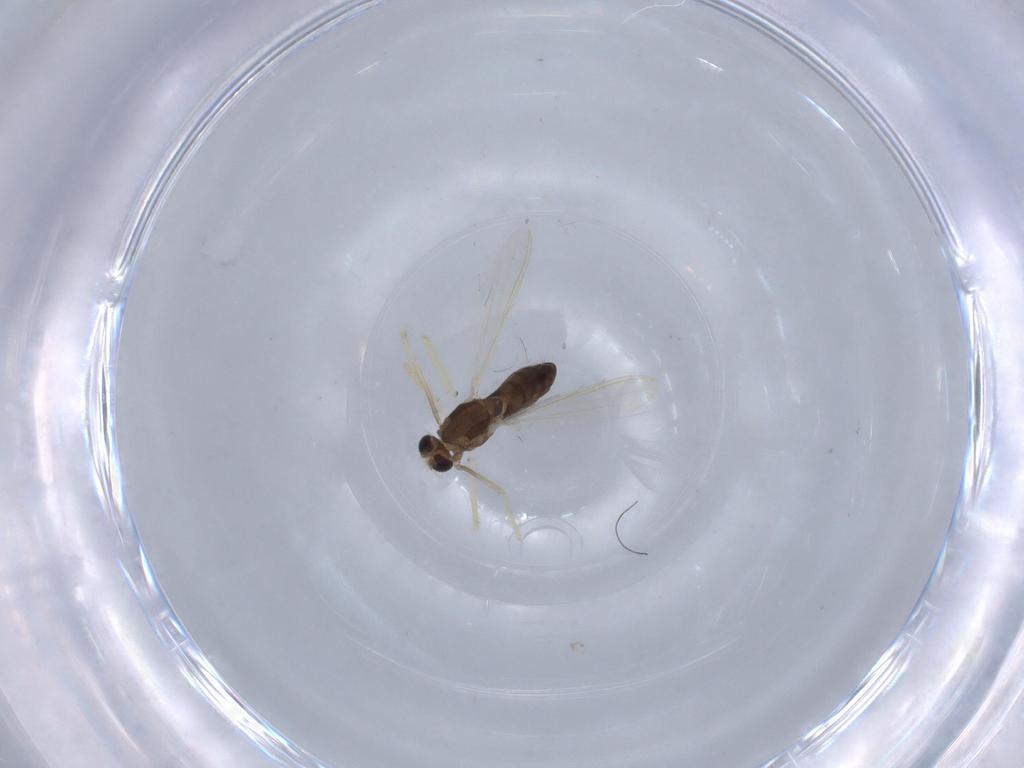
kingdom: Animalia
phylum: Arthropoda
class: Insecta
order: Diptera
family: Chironomidae
